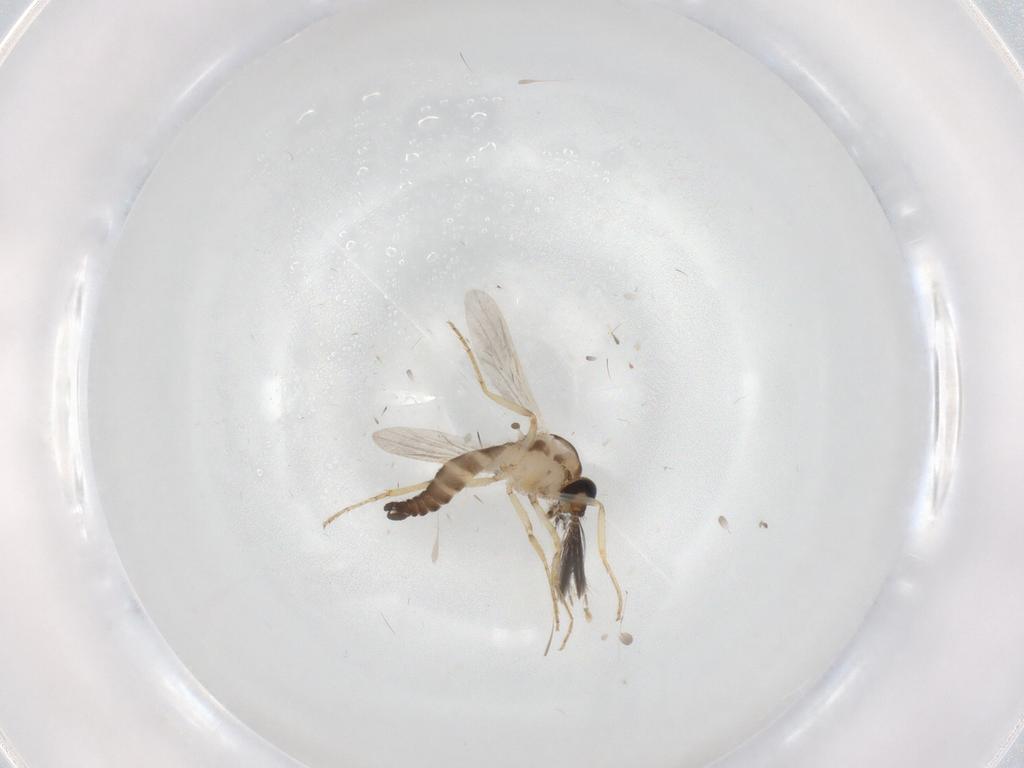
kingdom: Animalia
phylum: Arthropoda
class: Insecta
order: Diptera
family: Ceratopogonidae
